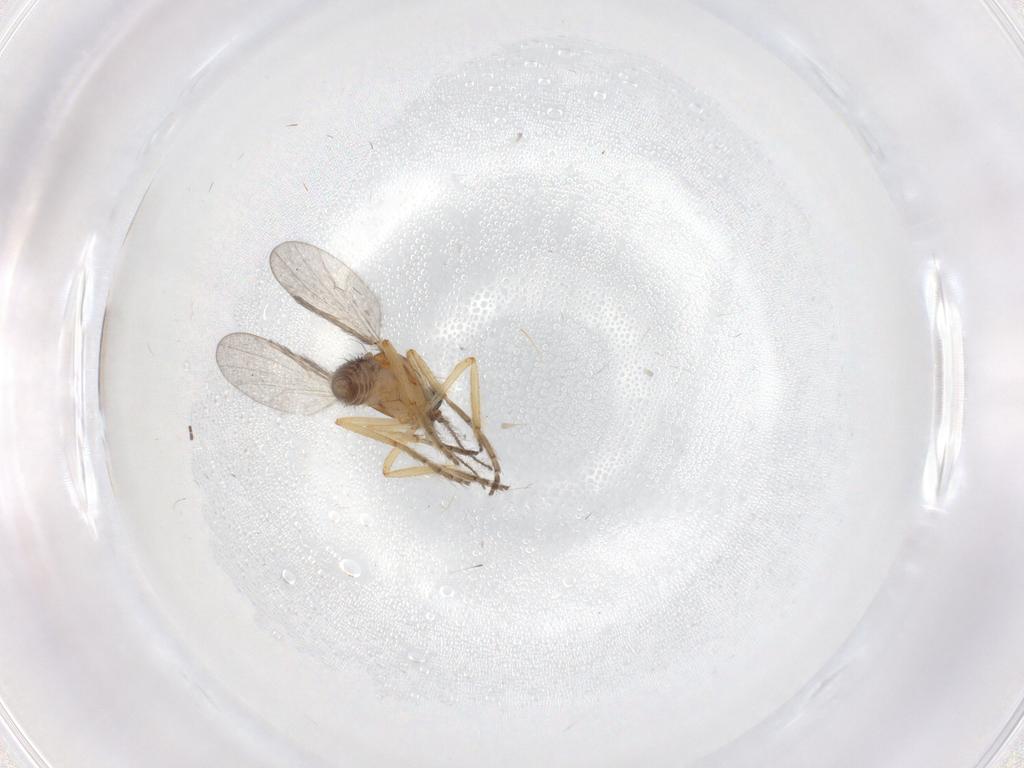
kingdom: Animalia
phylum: Arthropoda
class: Insecta
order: Diptera
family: Ceratopogonidae
